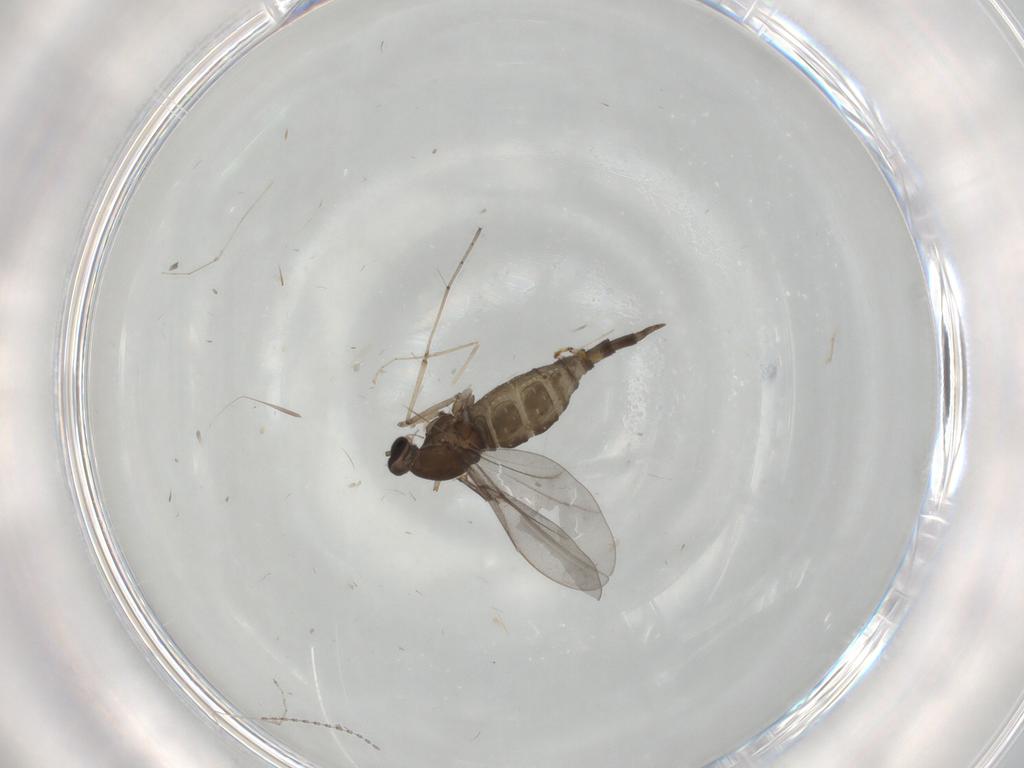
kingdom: Animalia
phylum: Arthropoda
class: Insecta
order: Diptera
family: Cecidomyiidae
